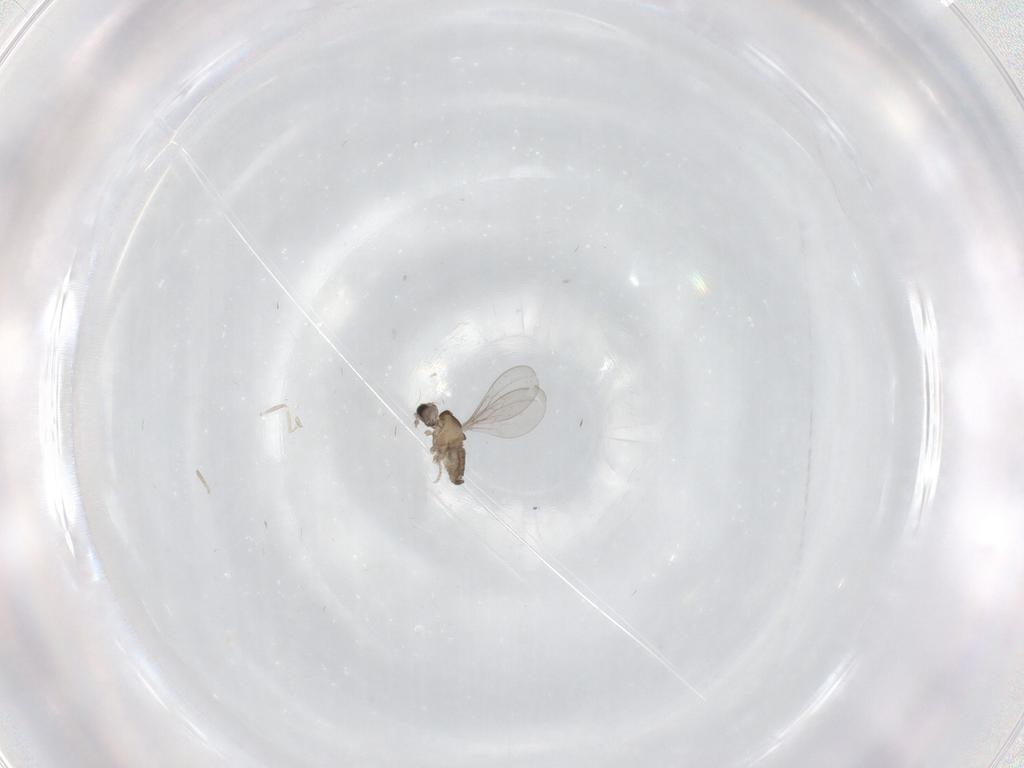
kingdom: Animalia
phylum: Arthropoda
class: Insecta
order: Diptera
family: Cecidomyiidae
